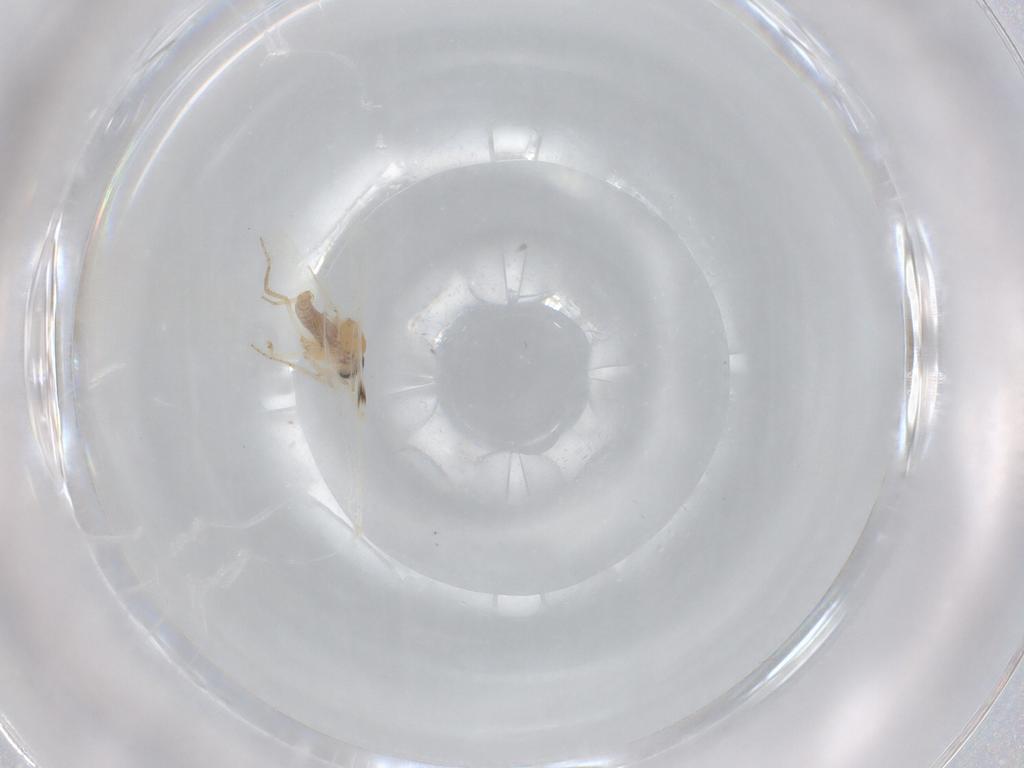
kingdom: Animalia
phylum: Arthropoda
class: Insecta
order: Diptera
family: Ceratopogonidae
